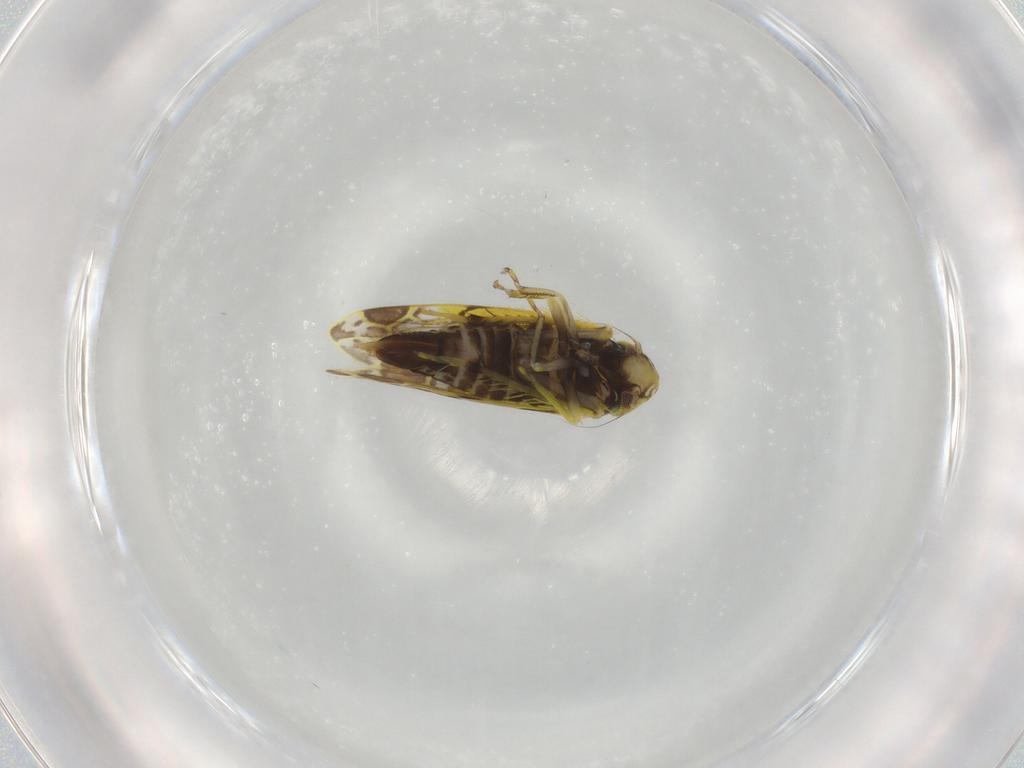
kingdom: Animalia
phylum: Arthropoda
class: Insecta
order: Hemiptera
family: Cicadellidae
